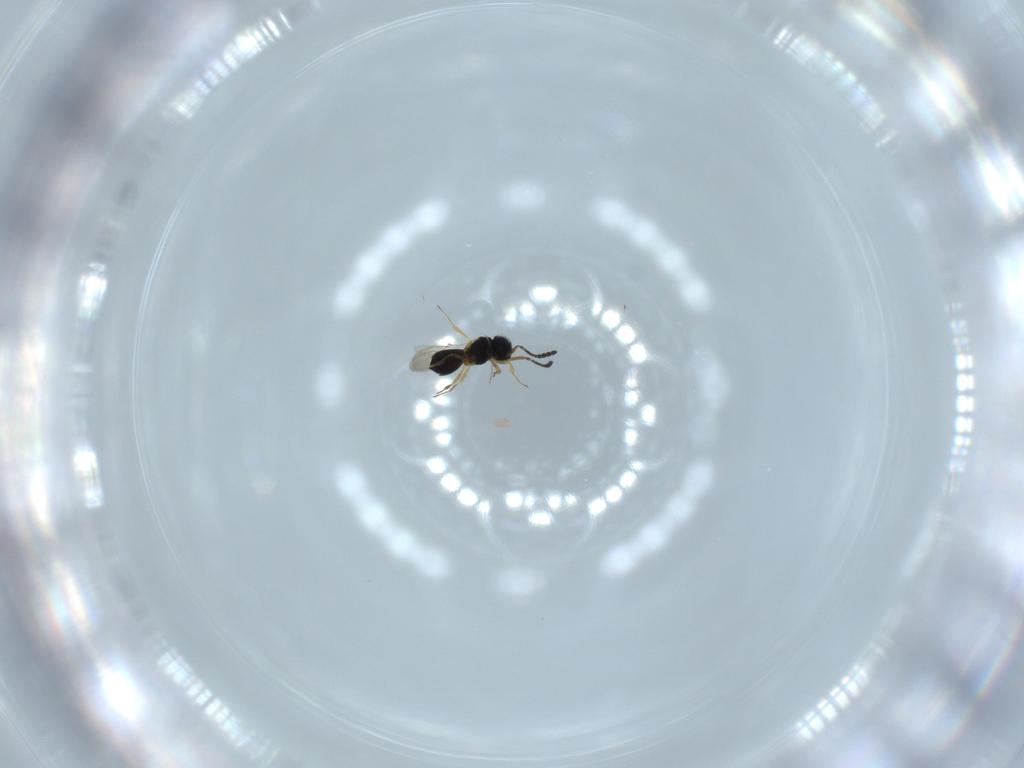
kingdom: Animalia
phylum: Arthropoda
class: Insecta
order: Hymenoptera
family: Scelionidae
